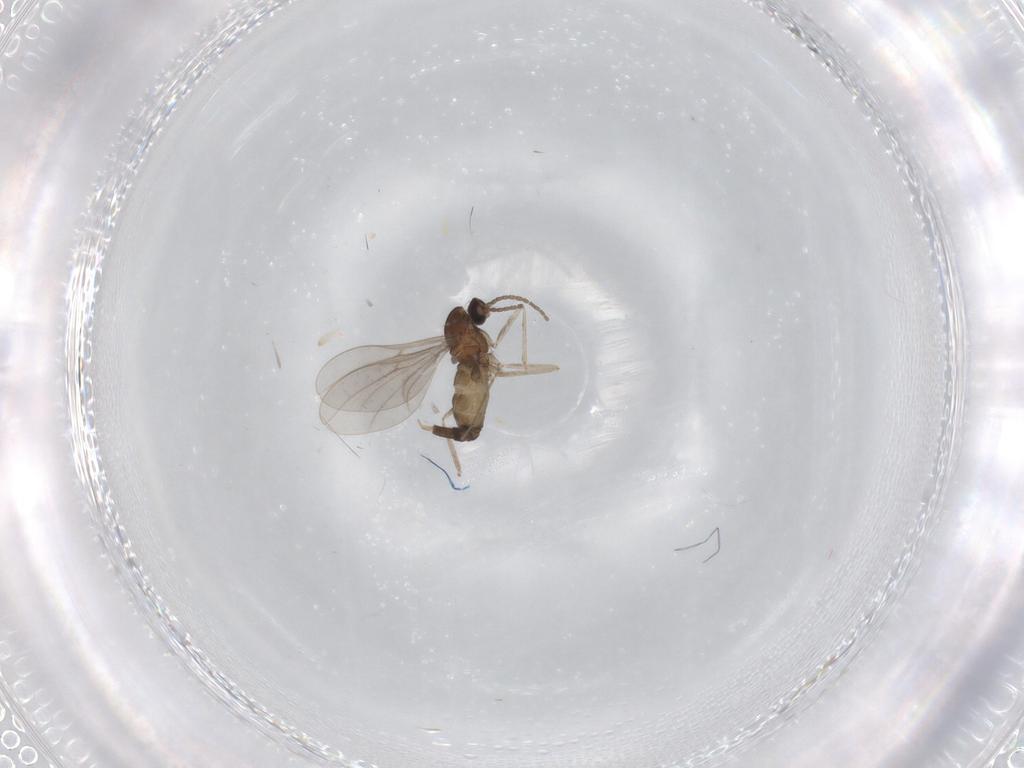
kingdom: Animalia
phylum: Arthropoda
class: Insecta
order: Diptera
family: Cecidomyiidae
